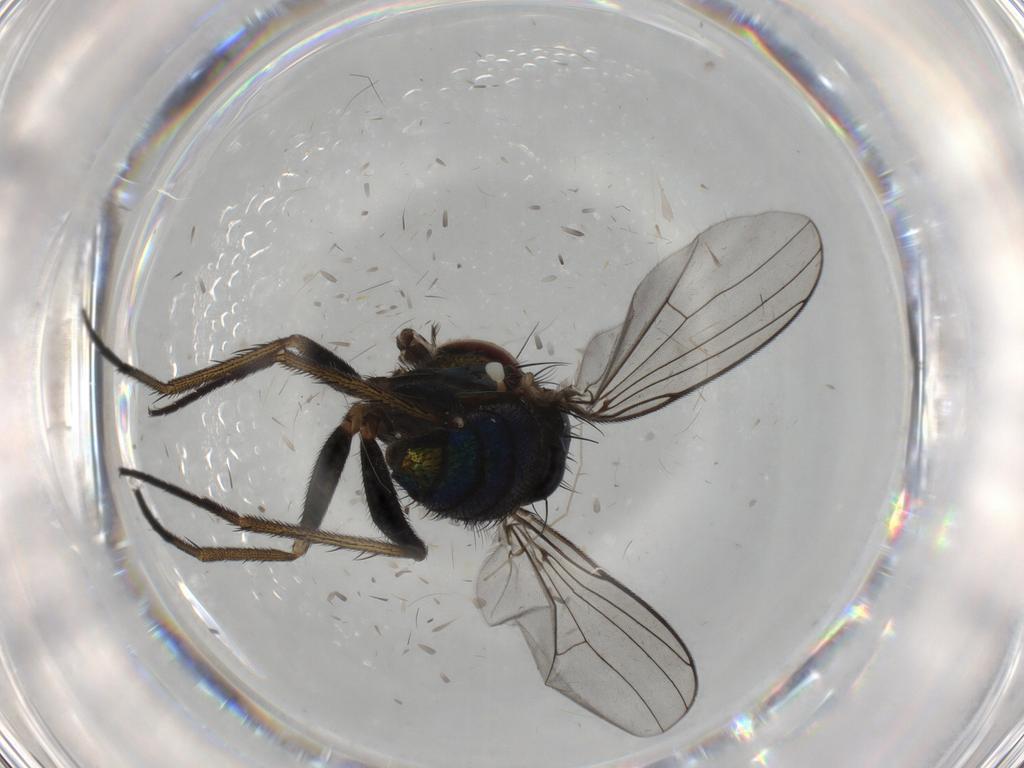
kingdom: Animalia
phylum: Arthropoda
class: Insecta
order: Diptera
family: Dolichopodidae
